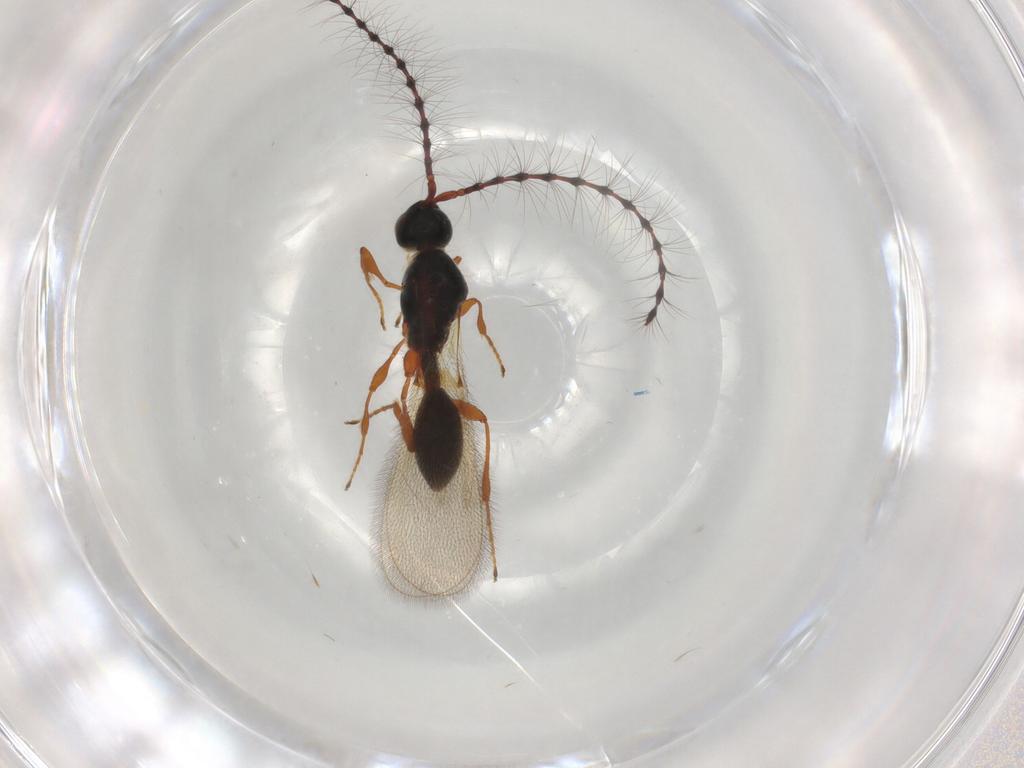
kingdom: Animalia
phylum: Arthropoda
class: Insecta
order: Hymenoptera
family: Diapriidae
